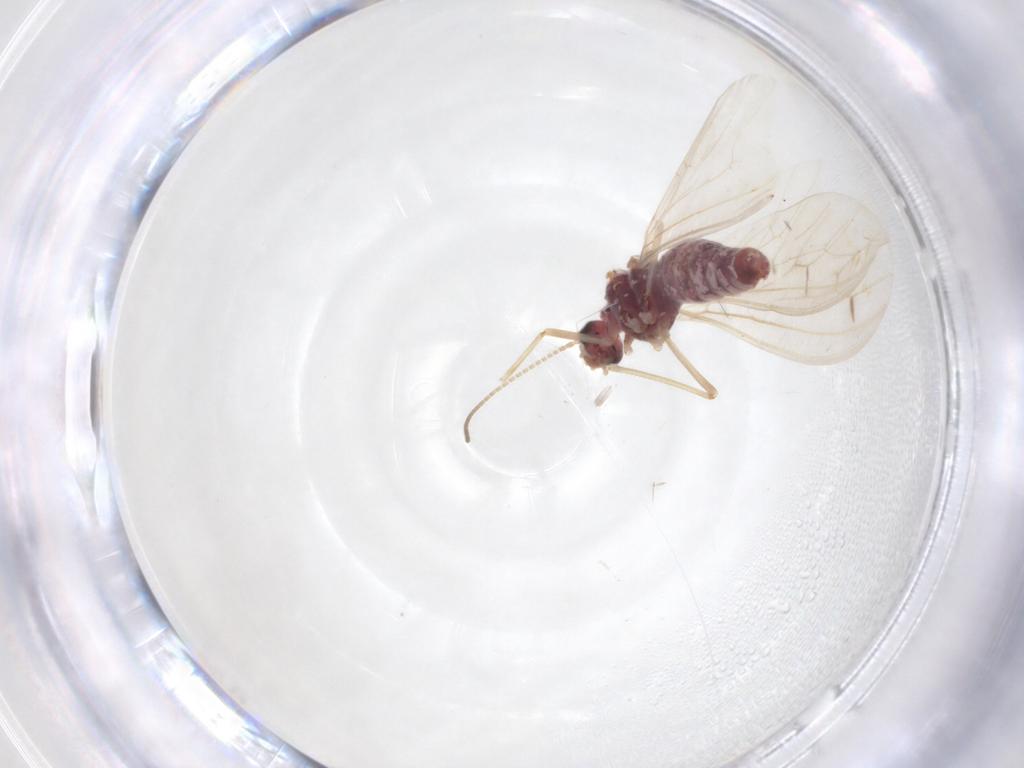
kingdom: Animalia
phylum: Arthropoda
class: Insecta
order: Neuroptera
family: Coniopterygidae
